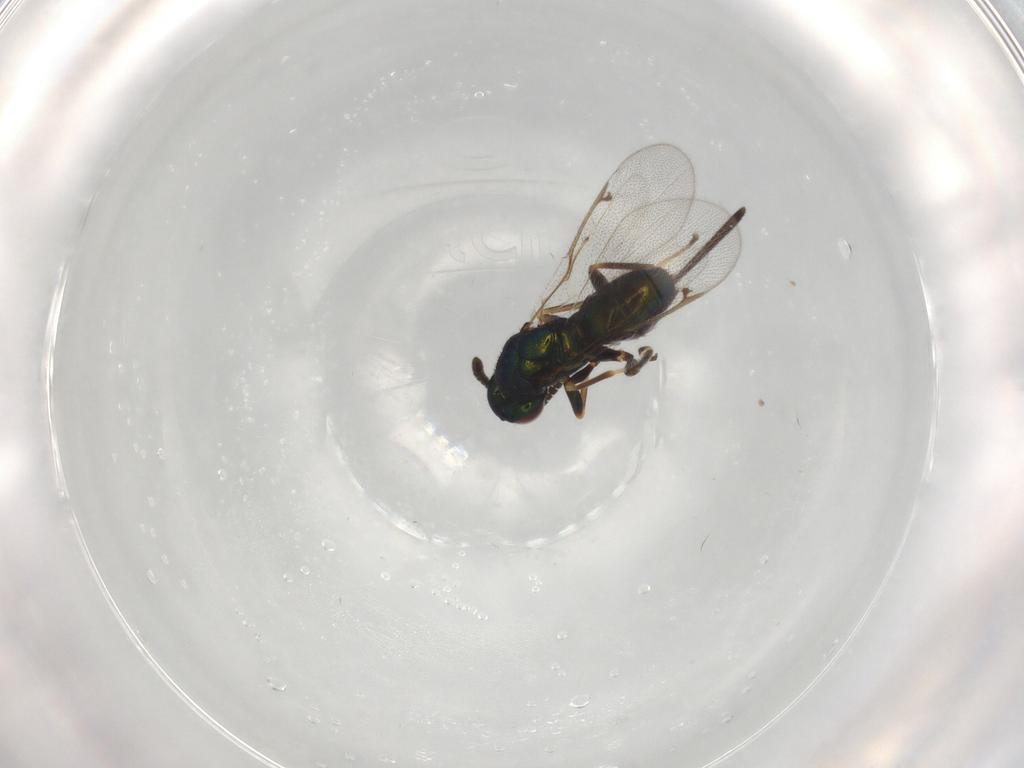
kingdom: Animalia
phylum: Arthropoda
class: Insecta
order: Hymenoptera
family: Torymidae
